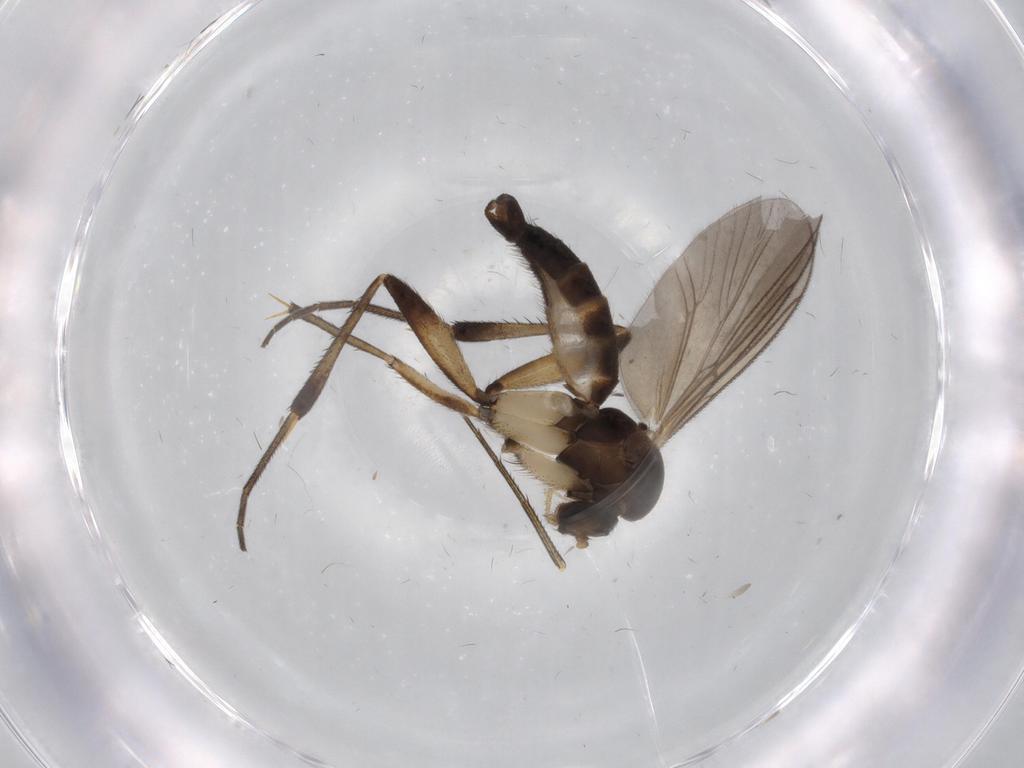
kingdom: Animalia
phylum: Arthropoda
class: Insecta
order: Diptera
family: Mycetophilidae
